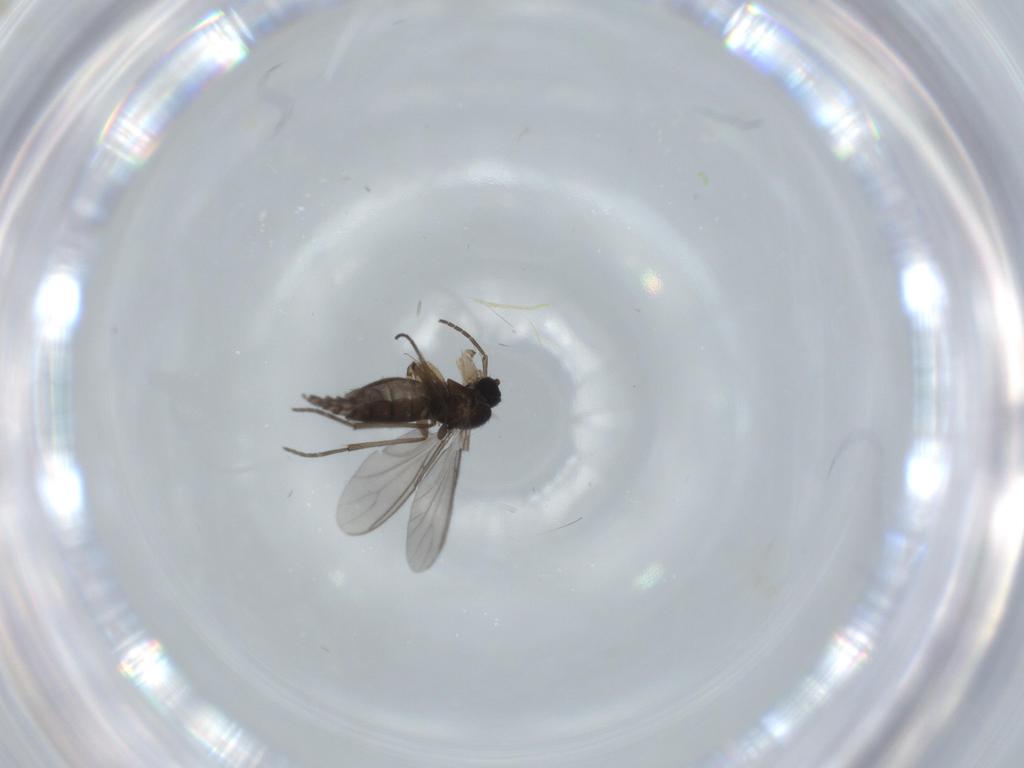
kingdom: Animalia
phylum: Arthropoda
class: Insecta
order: Diptera
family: Sciaridae
